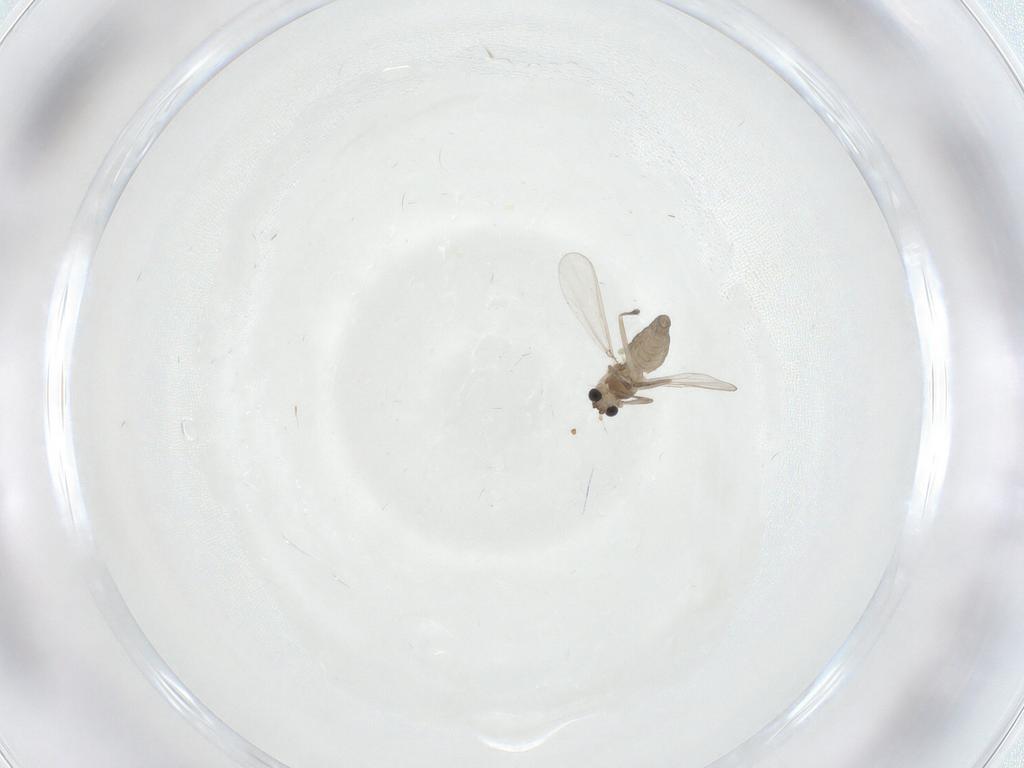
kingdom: Animalia
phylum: Arthropoda
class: Insecta
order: Diptera
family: Chironomidae
